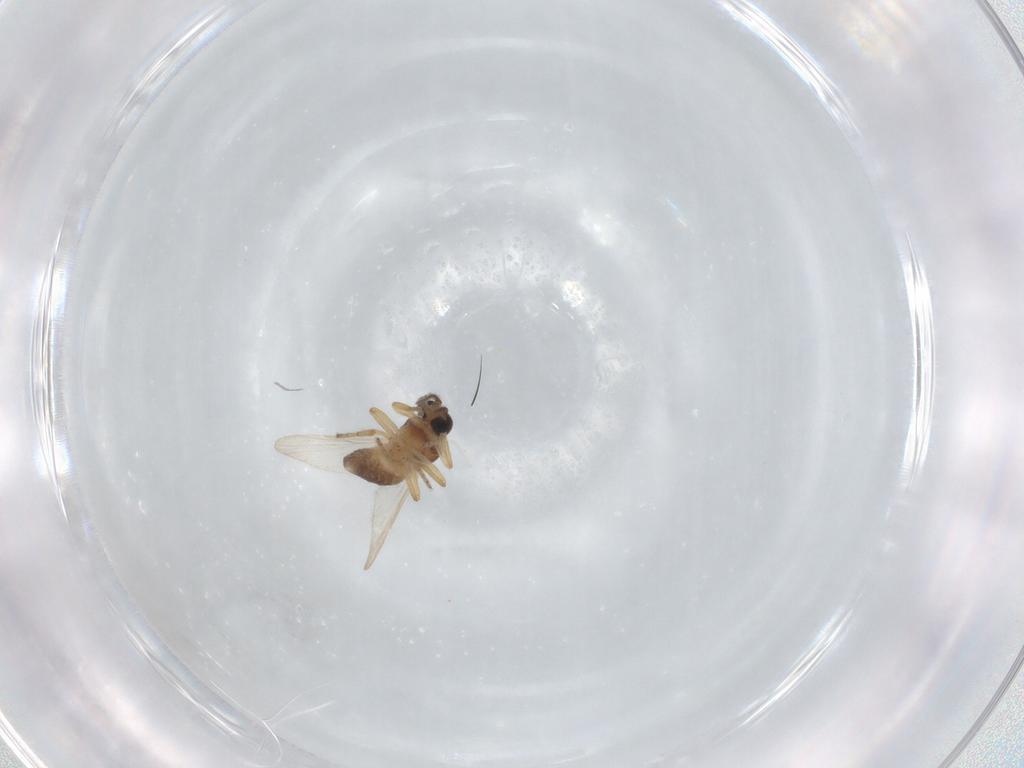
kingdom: Animalia
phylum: Arthropoda
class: Insecta
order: Diptera
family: Ceratopogonidae
